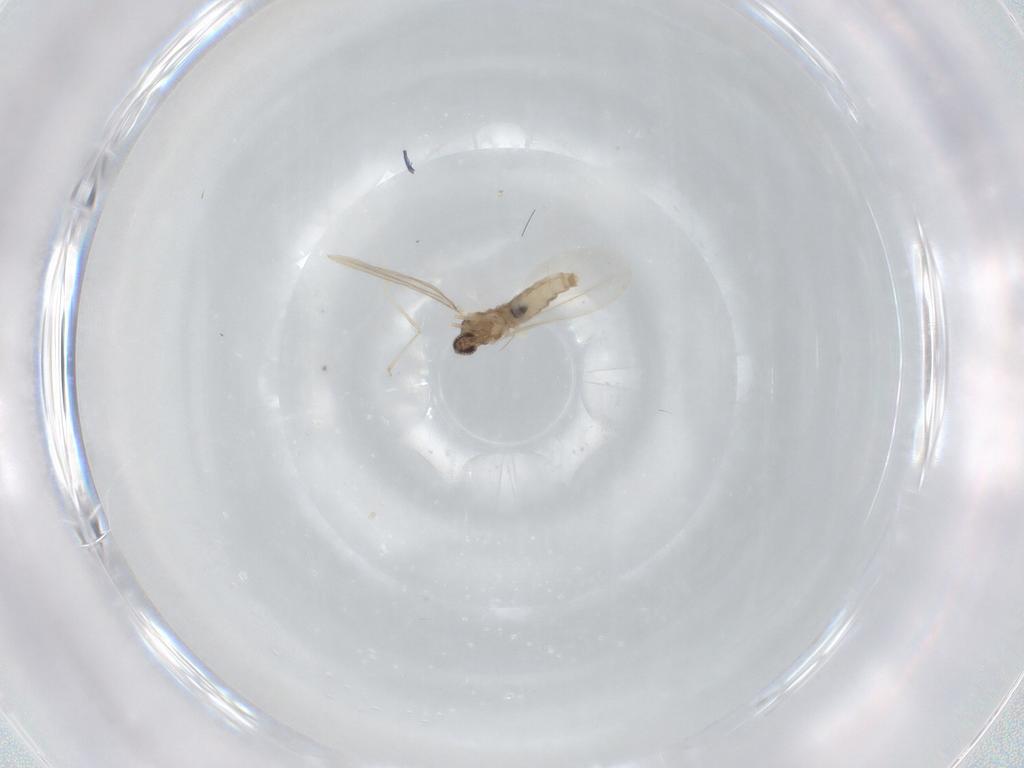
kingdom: Animalia
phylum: Arthropoda
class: Insecta
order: Diptera
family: Cecidomyiidae
